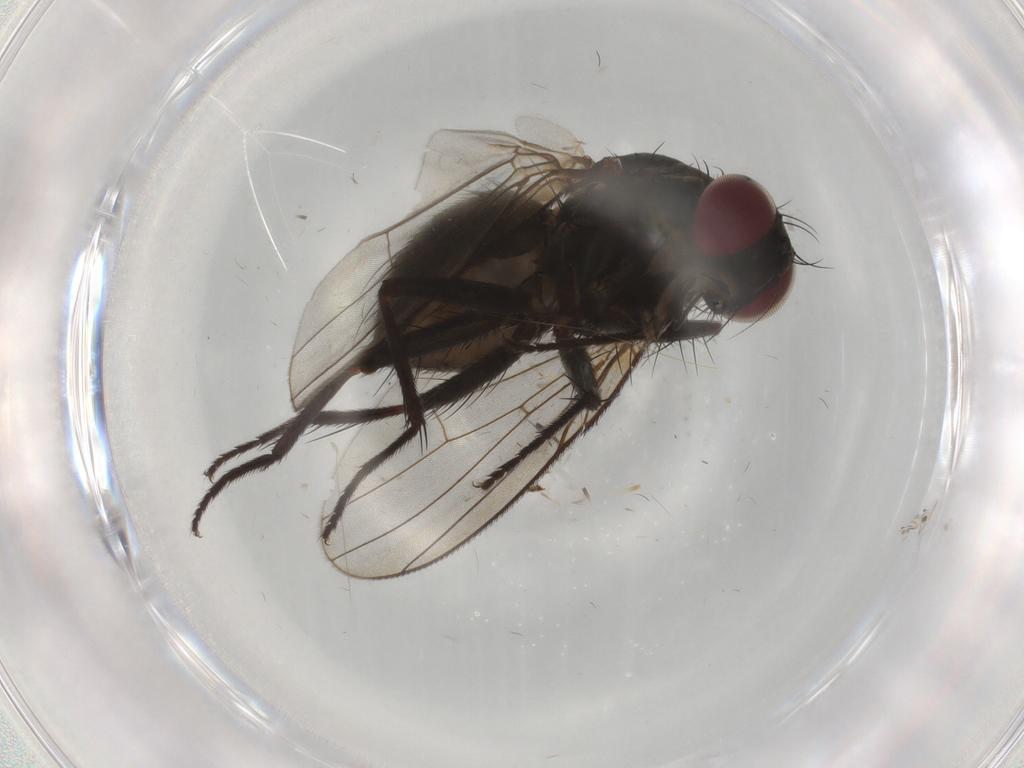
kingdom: Animalia
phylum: Arthropoda
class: Insecta
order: Diptera
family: Muscidae
